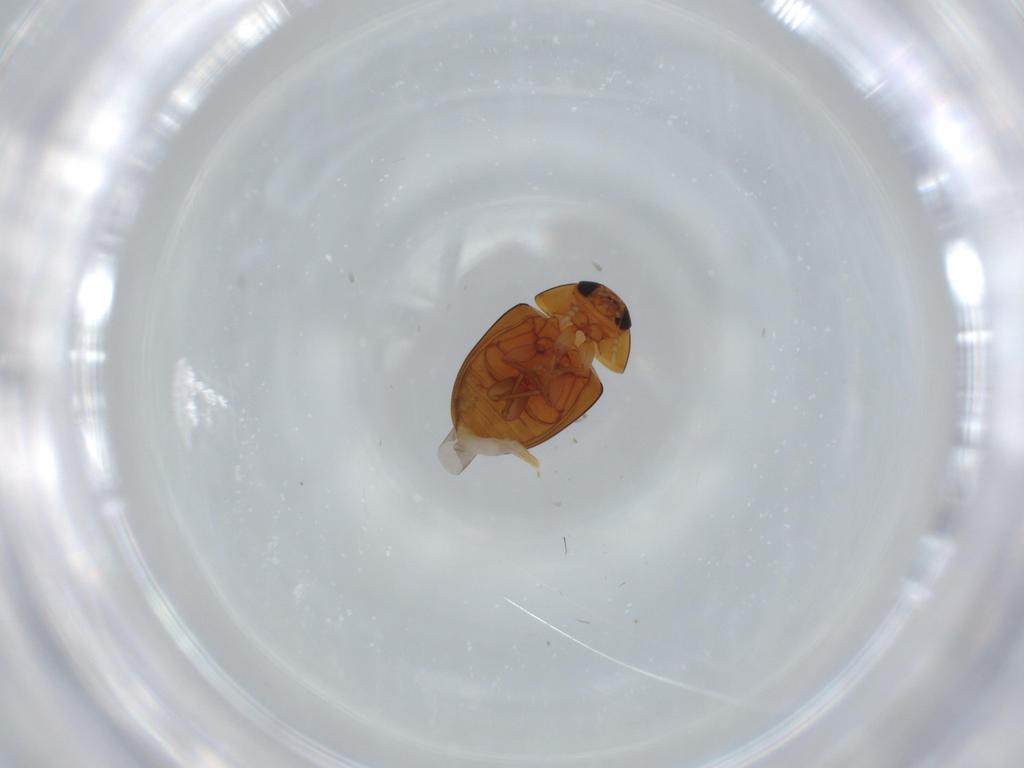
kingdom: Animalia
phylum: Arthropoda
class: Insecta
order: Coleoptera
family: Phalacridae
